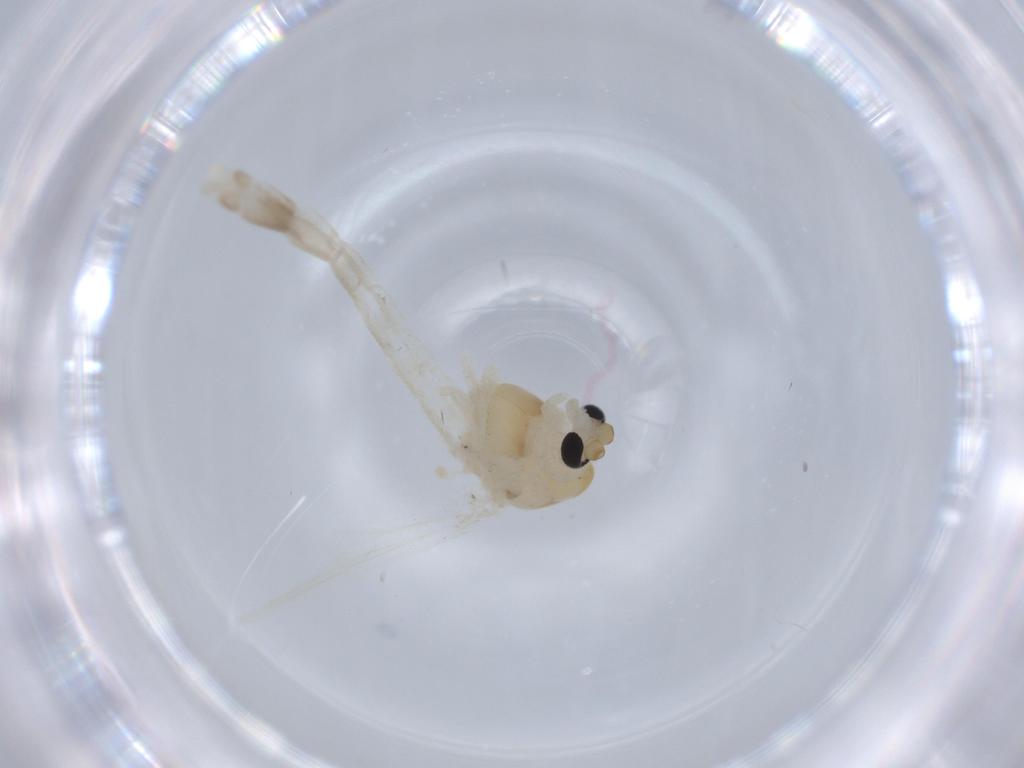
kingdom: Animalia
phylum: Arthropoda
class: Insecta
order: Diptera
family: Muscidae
